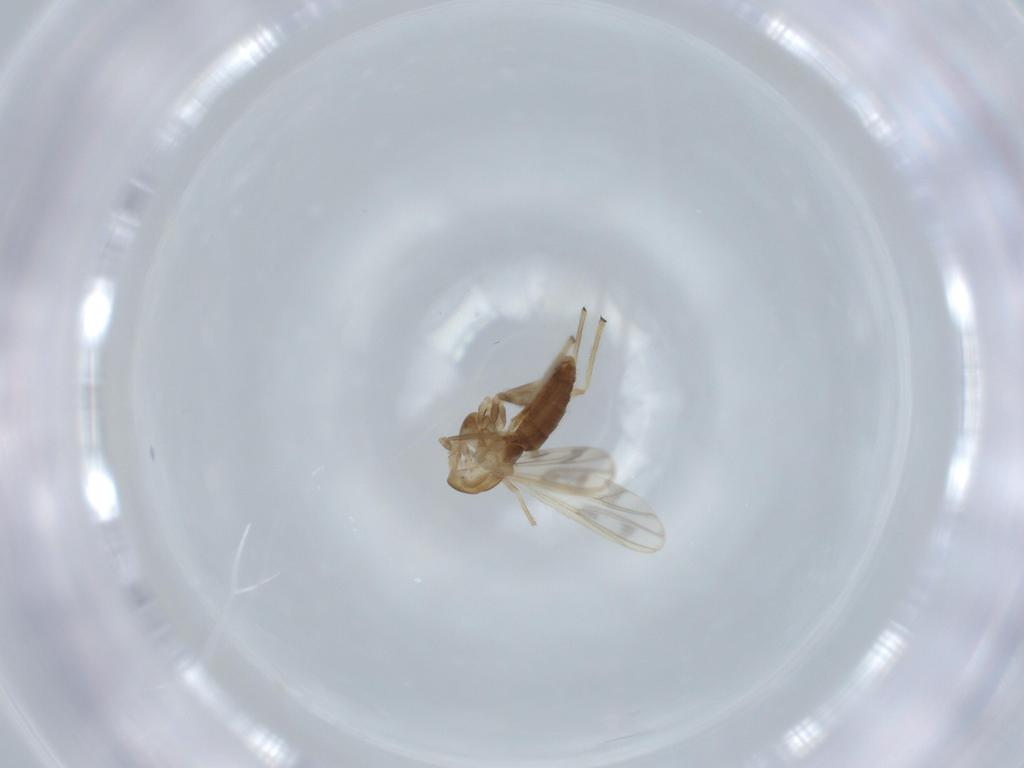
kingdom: Animalia
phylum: Arthropoda
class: Insecta
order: Diptera
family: Chironomidae
